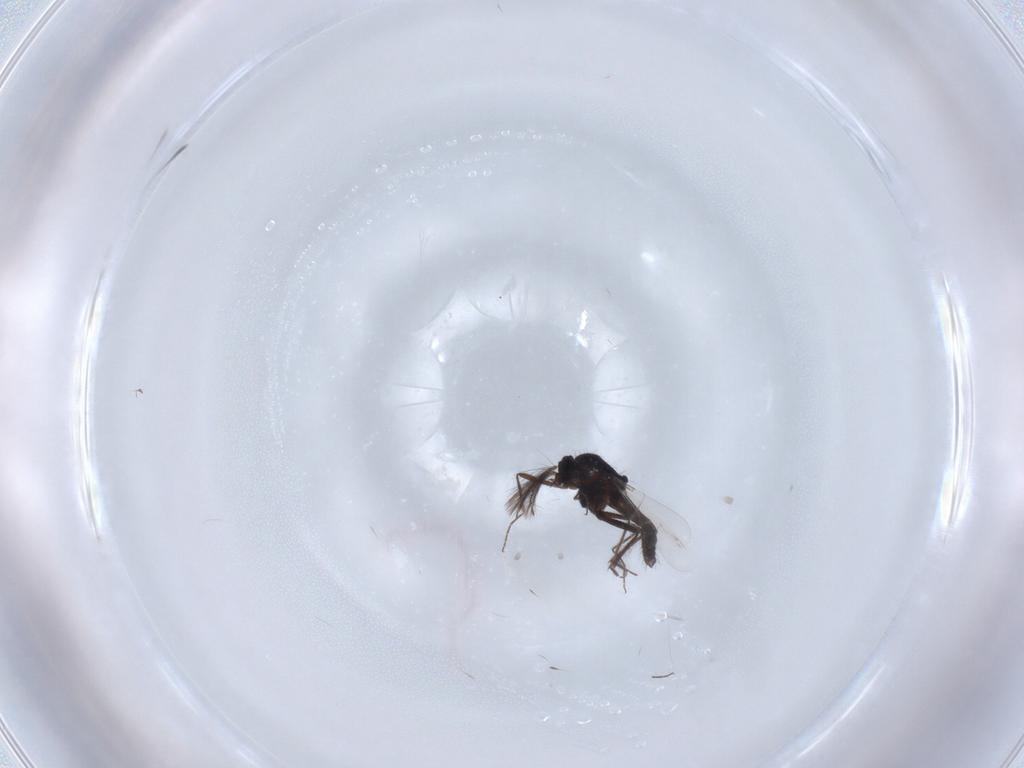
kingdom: Animalia
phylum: Arthropoda
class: Insecta
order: Diptera
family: Ceratopogonidae
